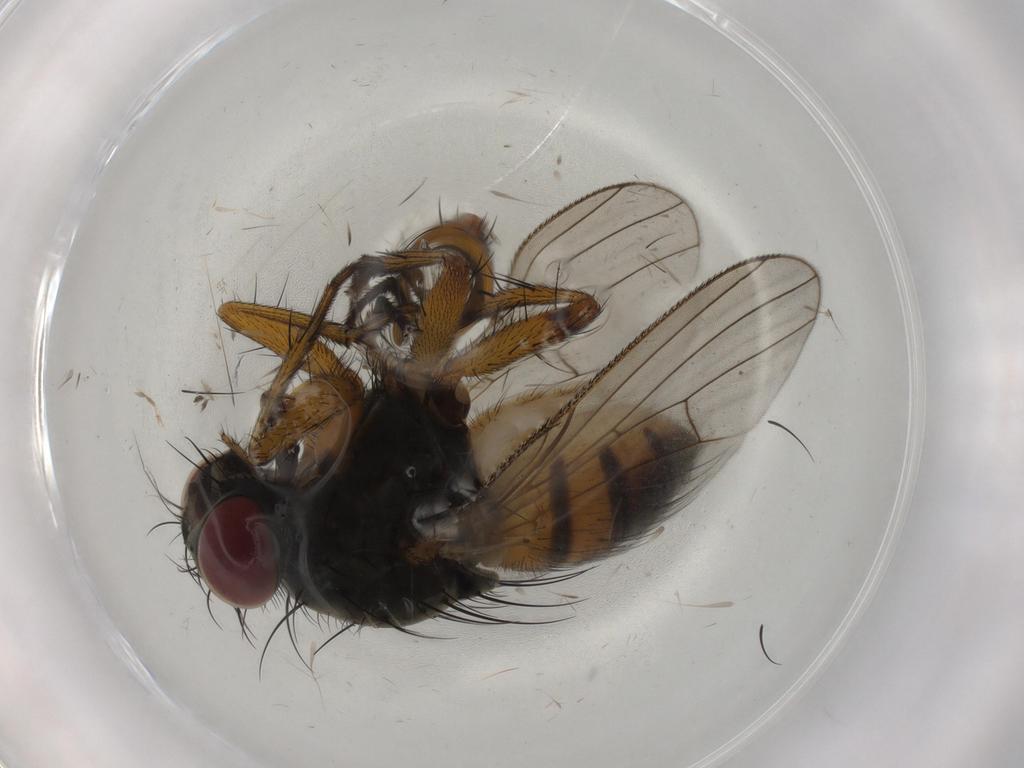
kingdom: Animalia
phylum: Arthropoda
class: Insecta
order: Diptera
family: Muscidae
